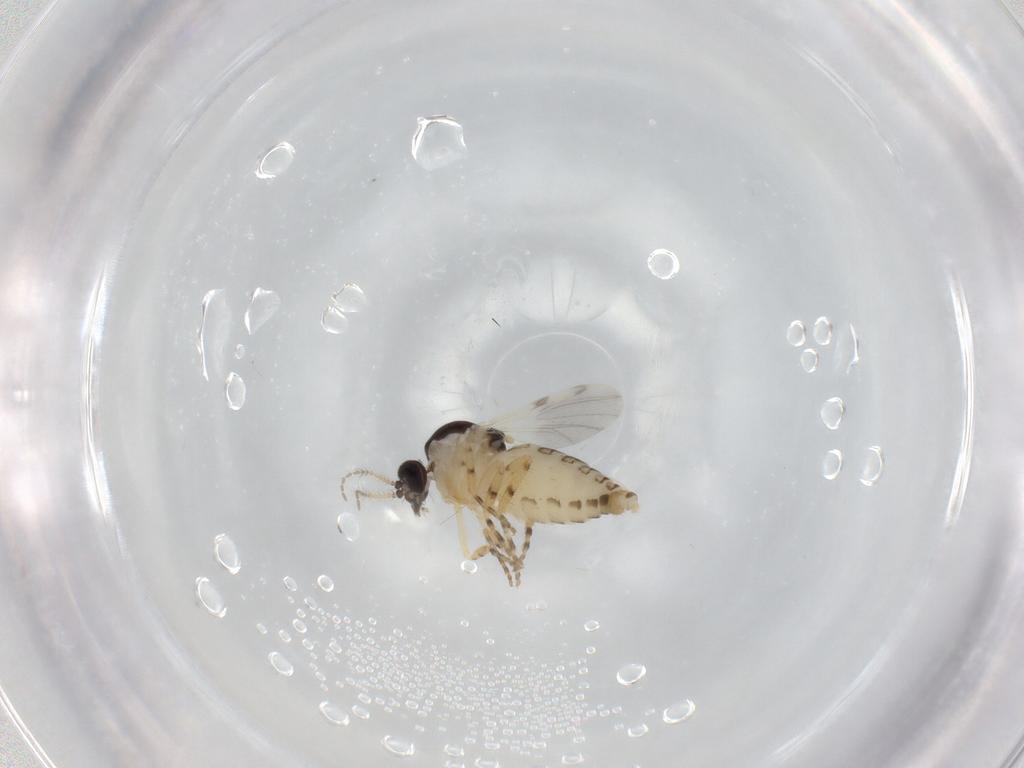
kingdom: Animalia
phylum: Arthropoda
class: Insecta
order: Diptera
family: Ceratopogonidae
